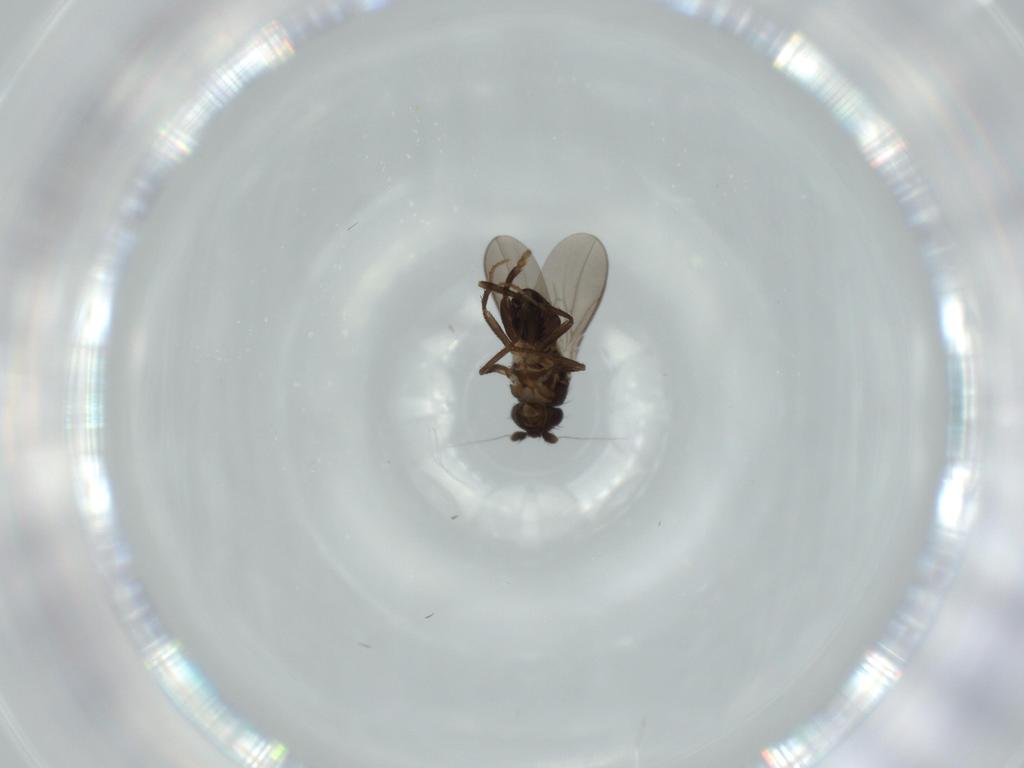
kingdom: Animalia
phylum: Arthropoda
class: Insecta
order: Diptera
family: Sphaeroceridae
